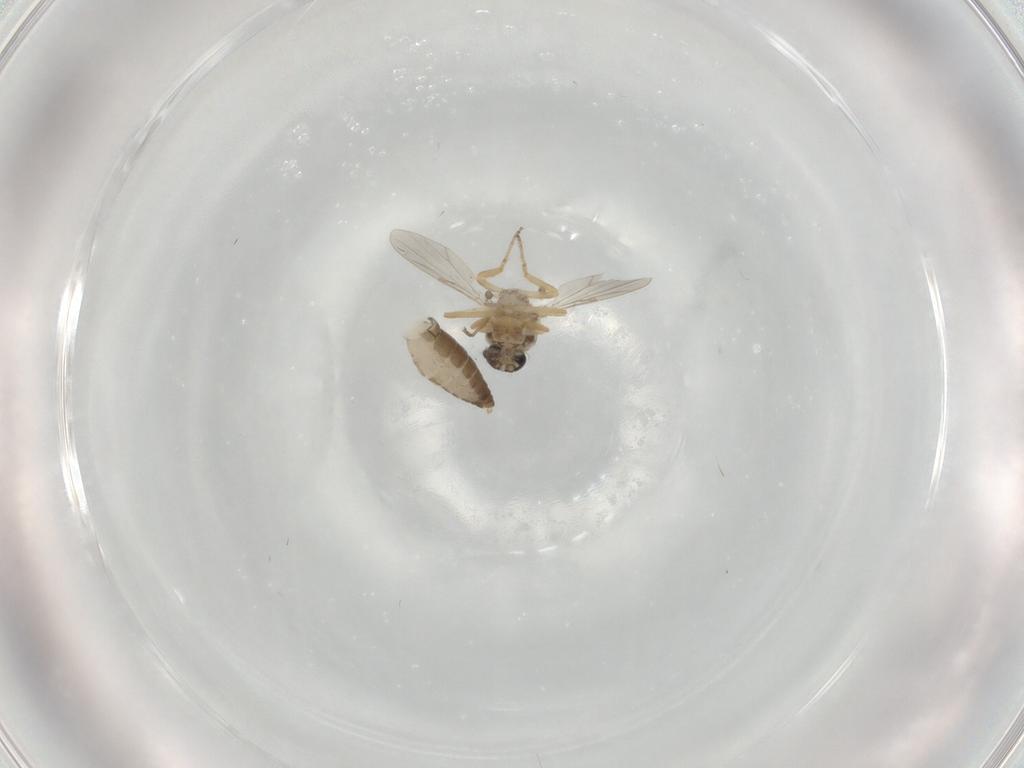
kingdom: Animalia
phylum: Arthropoda
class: Insecta
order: Diptera
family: Ceratopogonidae
